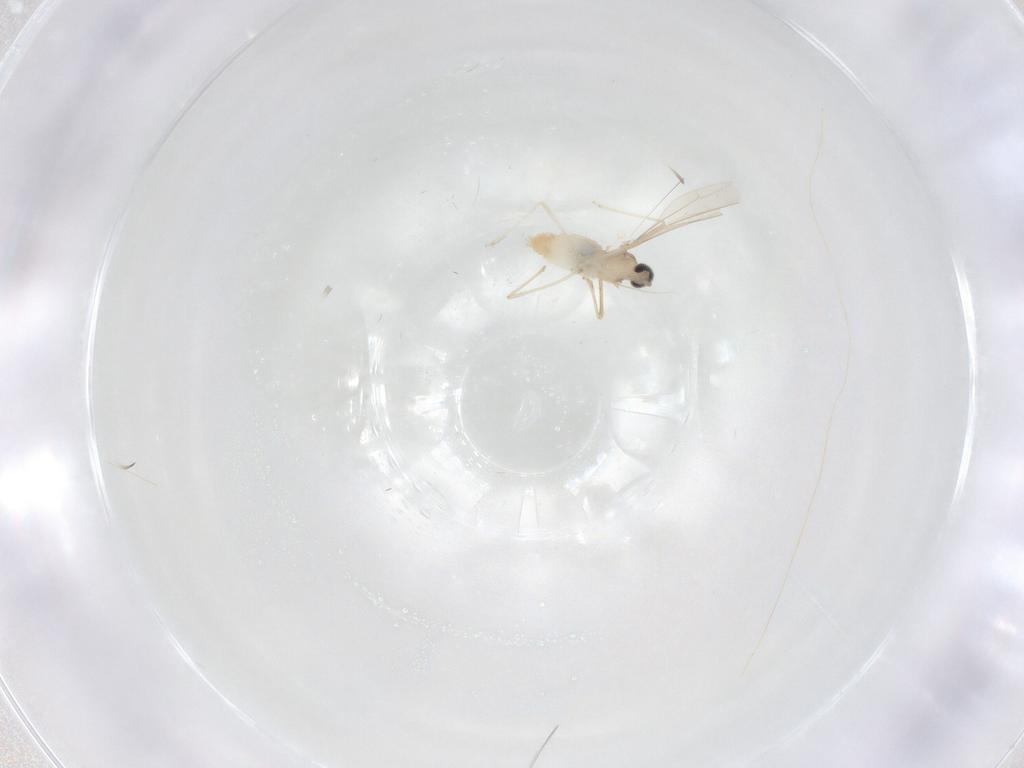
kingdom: Animalia
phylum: Arthropoda
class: Insecta
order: Diptera
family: Cecidomyiidae
